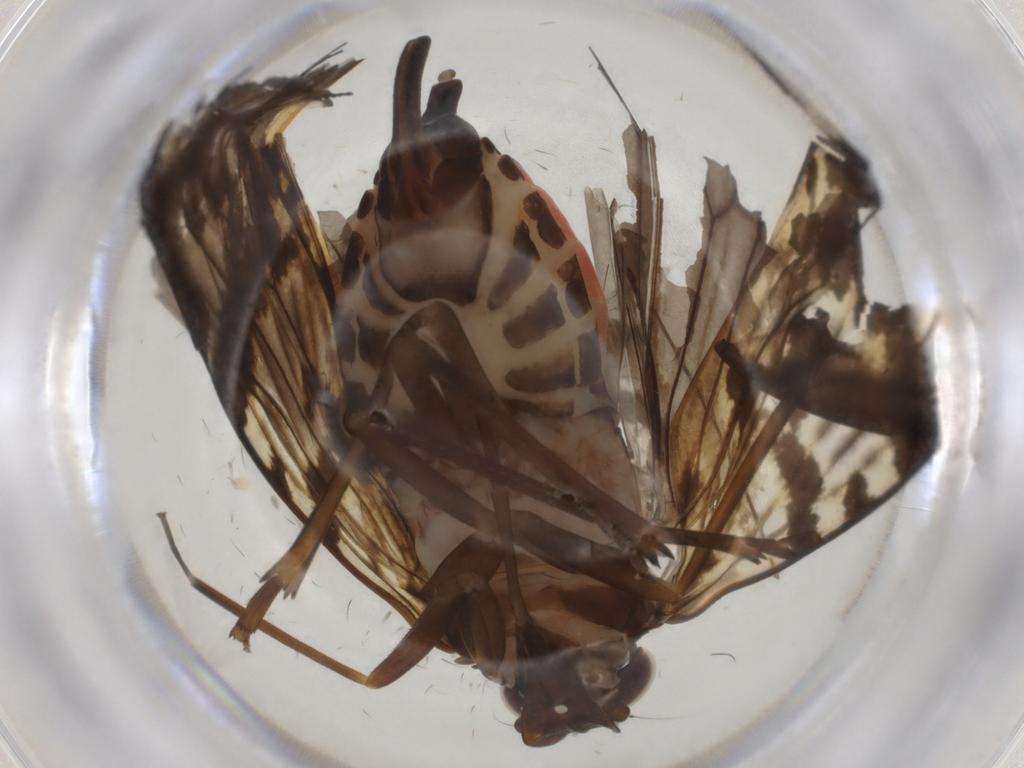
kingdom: Animalia
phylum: Arthropoda
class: Insecta
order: Hemiptera
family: Cixiidae
